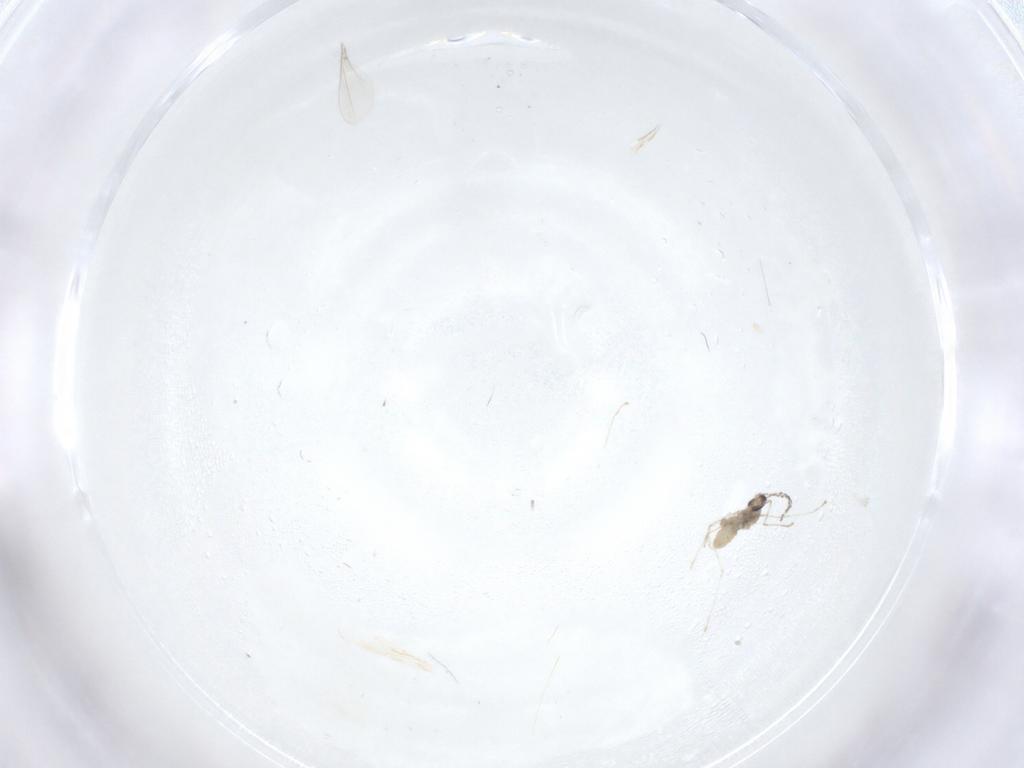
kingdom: Animalia
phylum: Arthropoda
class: Insecta
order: Diptera
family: Cecidomyiidae
